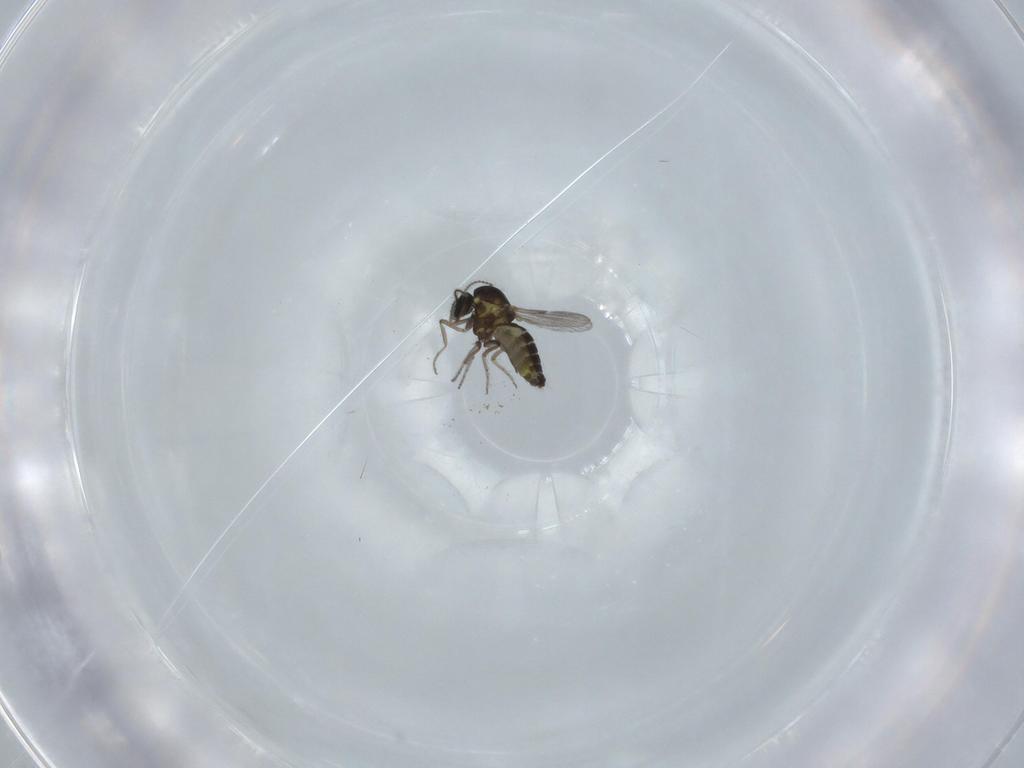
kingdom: Animalia
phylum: Arthropoda
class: Insecta
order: Diptera
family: Ceratopogonidae
